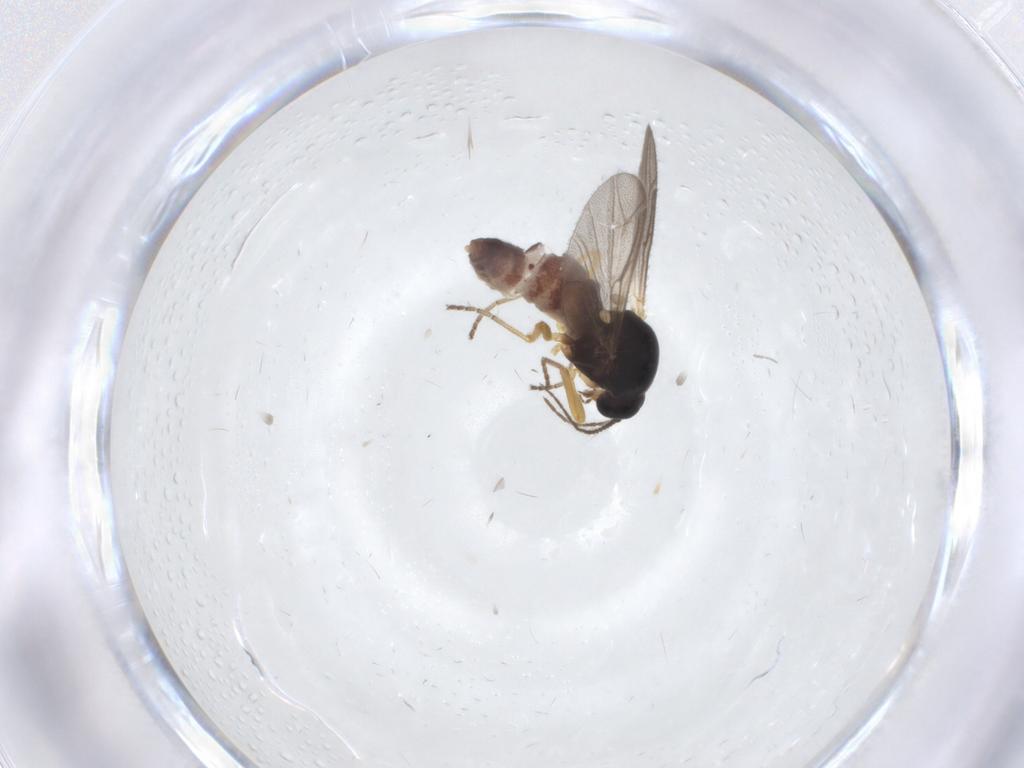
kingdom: Animalia
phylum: Arthropoda
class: Insecta
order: Diptera
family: Ceratopogonidae
